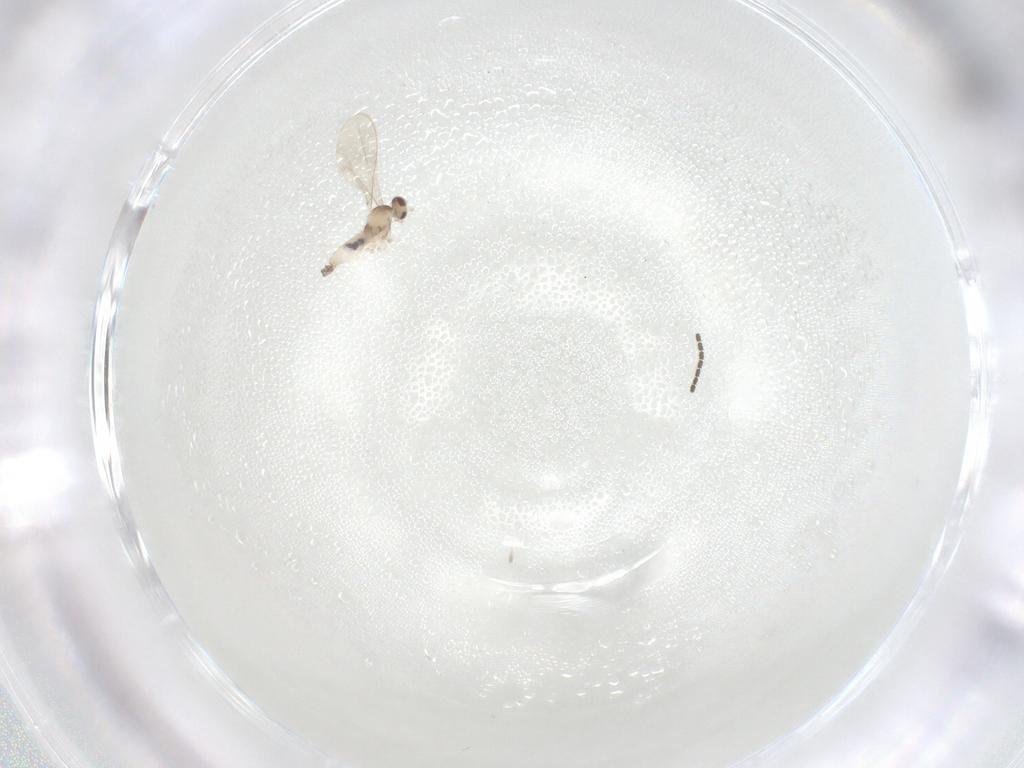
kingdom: Animalia
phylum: Arthropoda
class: Insecta
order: Diptera
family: Cecidomyiidae
